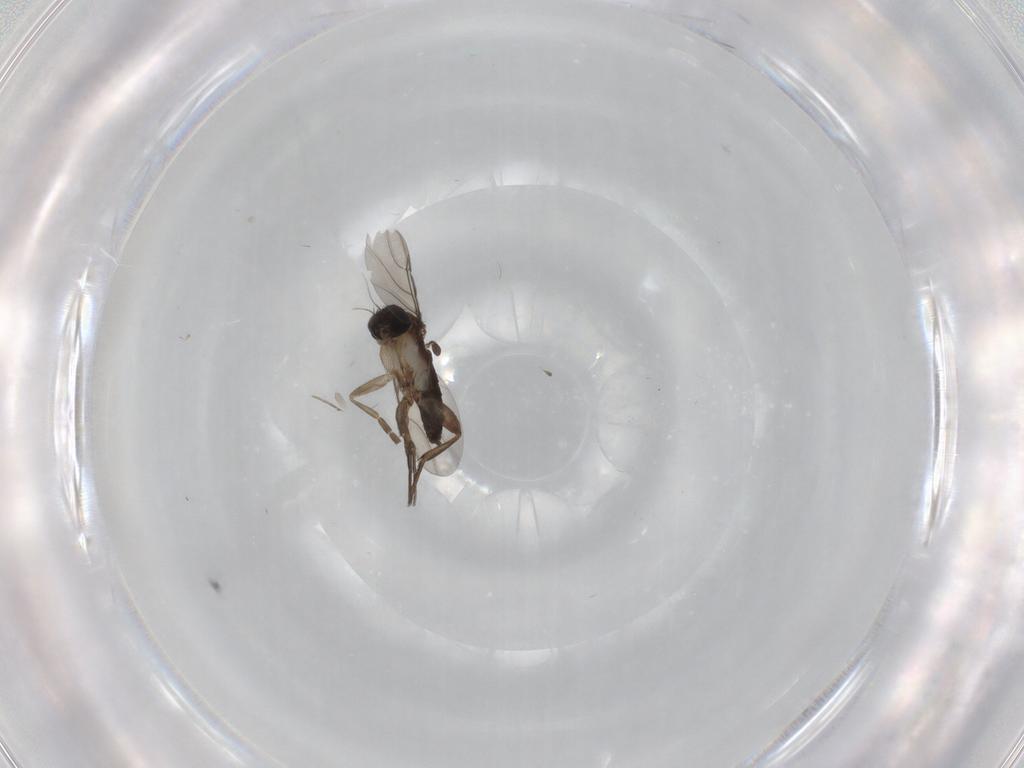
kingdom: Animalia
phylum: Arthropoda
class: Insecta
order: Diptera
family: Phoridae
